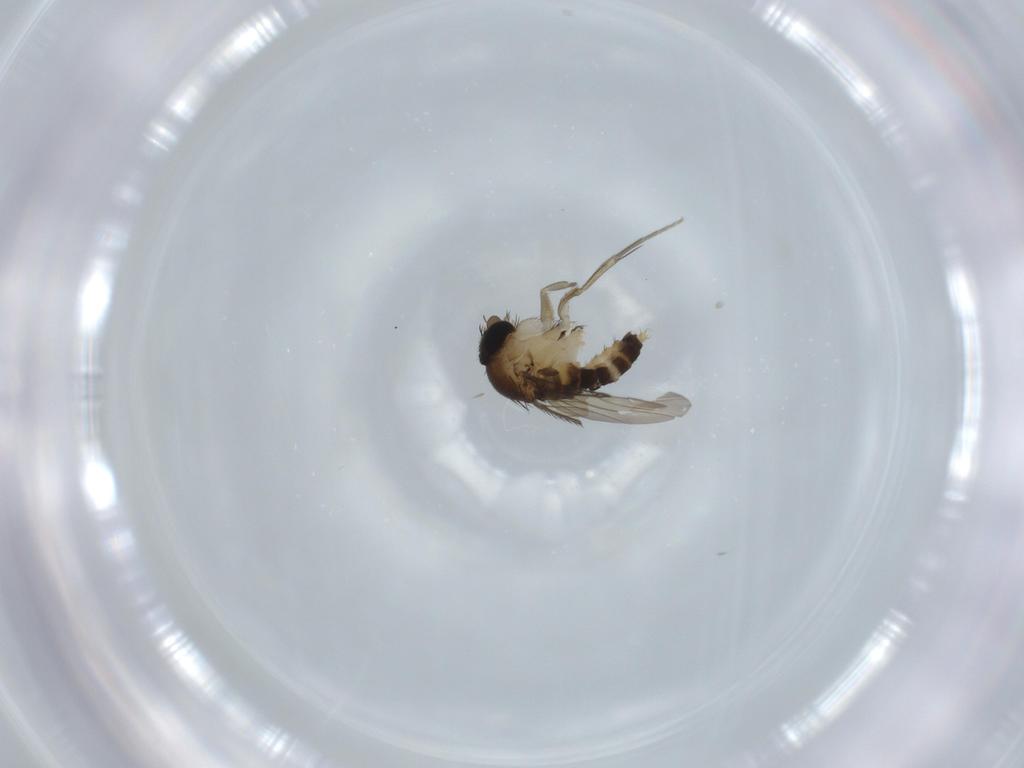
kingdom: Animalia
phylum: Arthropoda
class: Insecta
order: Diptera
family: Phoridae
